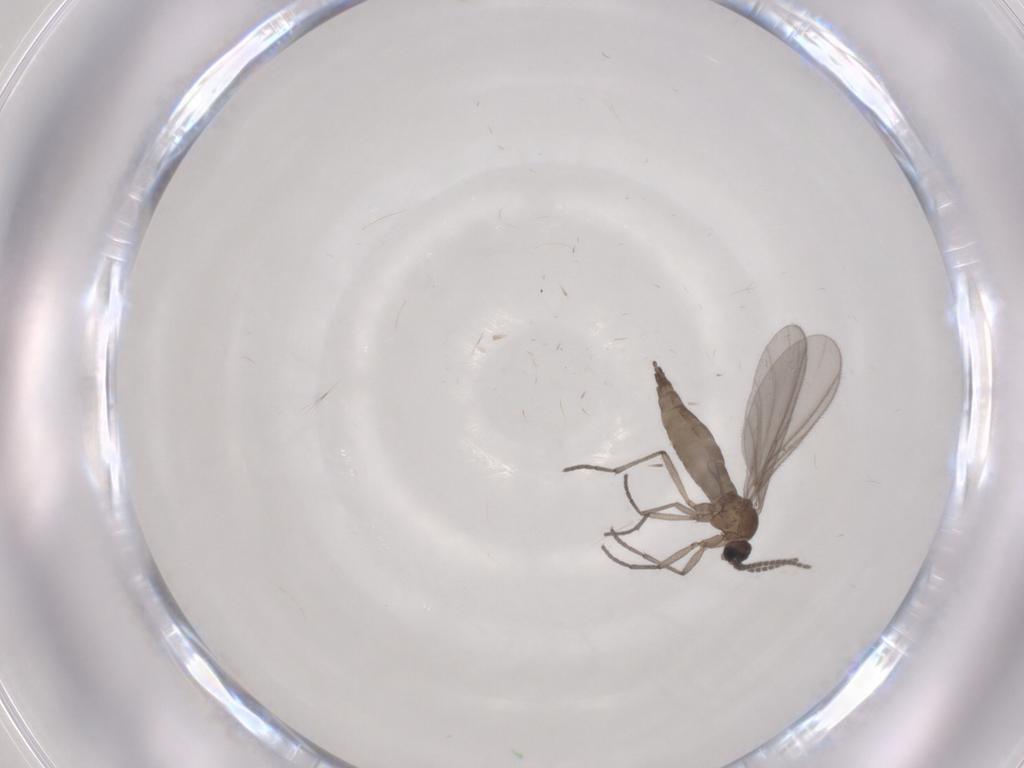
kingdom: Animalia
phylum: Arthropoda
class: Insecta
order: Diptera
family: Sciaridae
